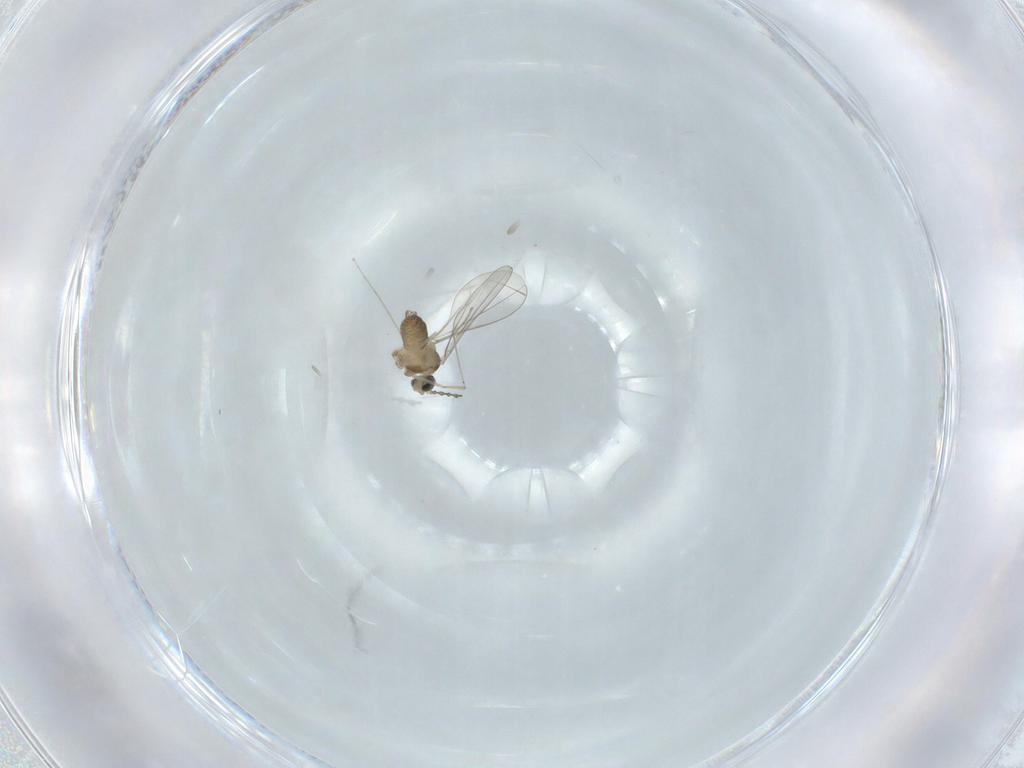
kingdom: Animalia
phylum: Arthropoda
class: Insecta
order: Diptera
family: Cecidomyiidae
